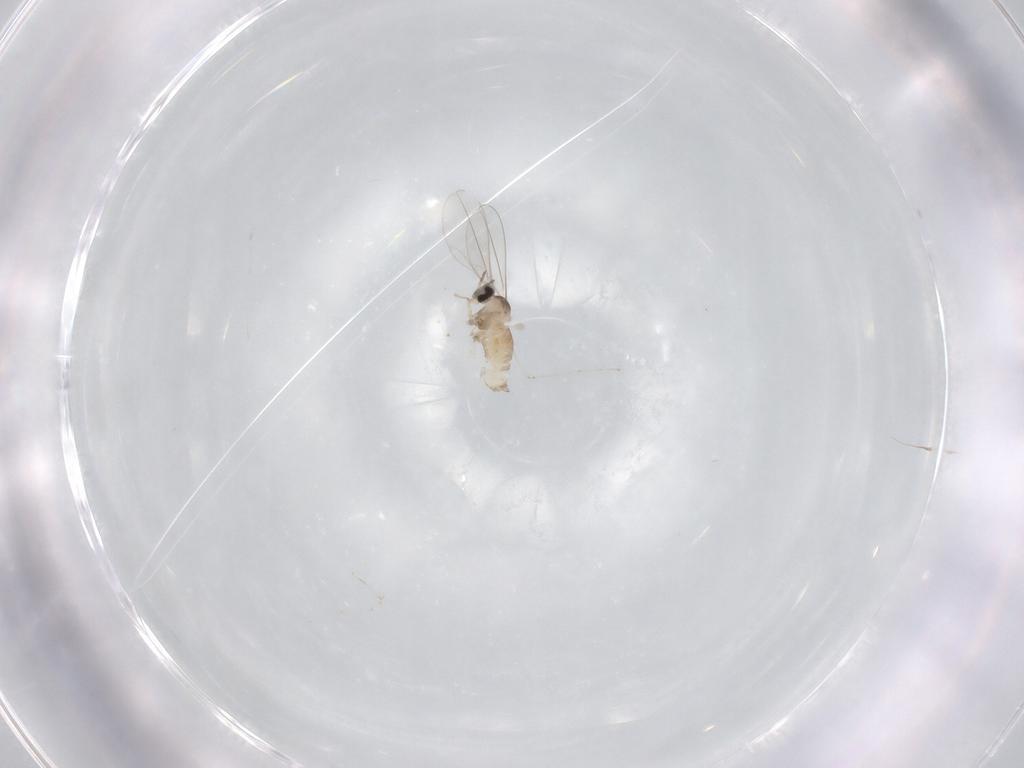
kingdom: Animalia
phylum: Arthropoda
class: Insecta
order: Diptera
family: Cecidomyiidae
